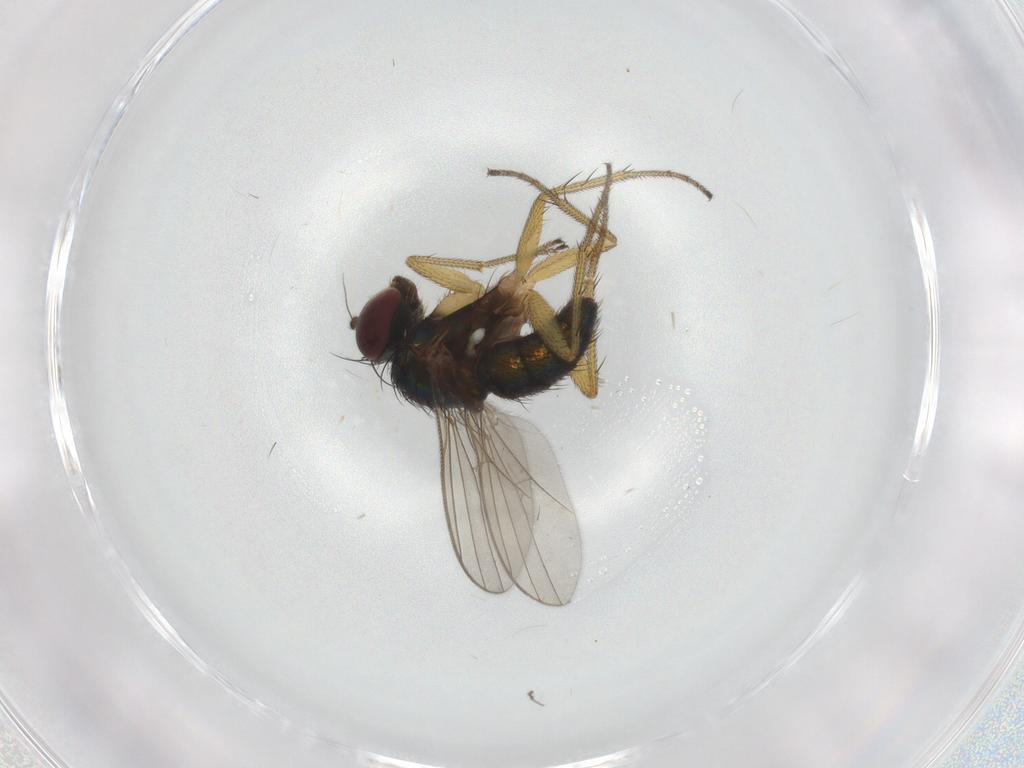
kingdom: Animalia
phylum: Arthropoda
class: Insecta
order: Diptera
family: Dolichopodidae
